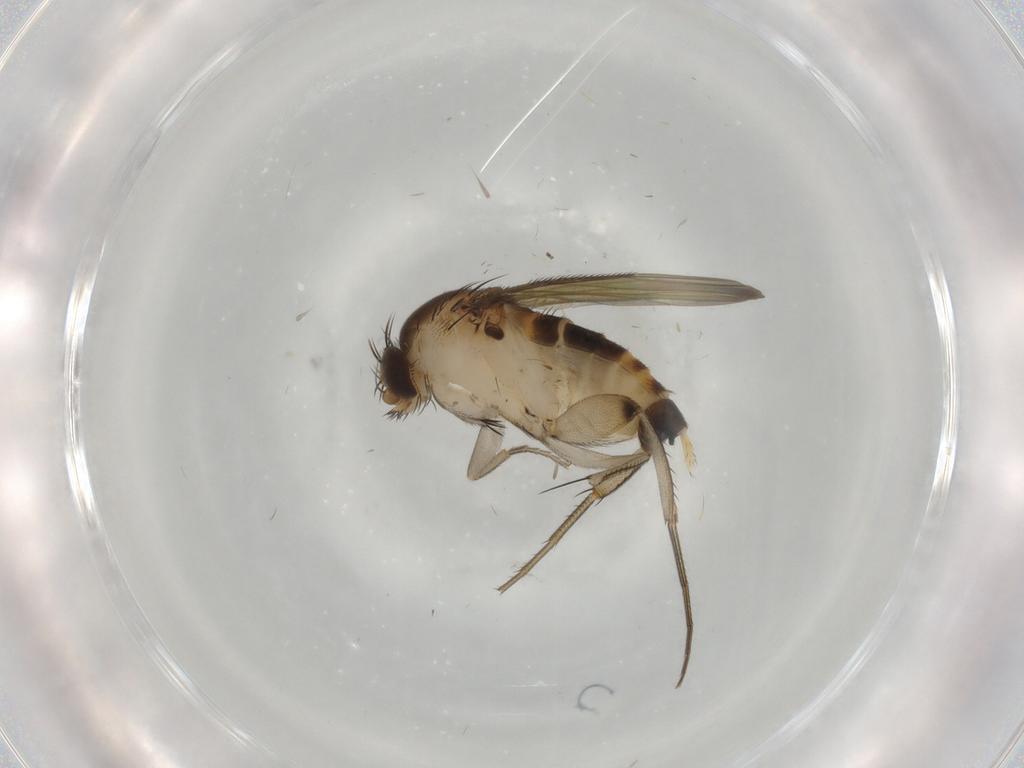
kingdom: Animalia
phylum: Arthropoda
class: Insecta
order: Diptera
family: Phoridae
